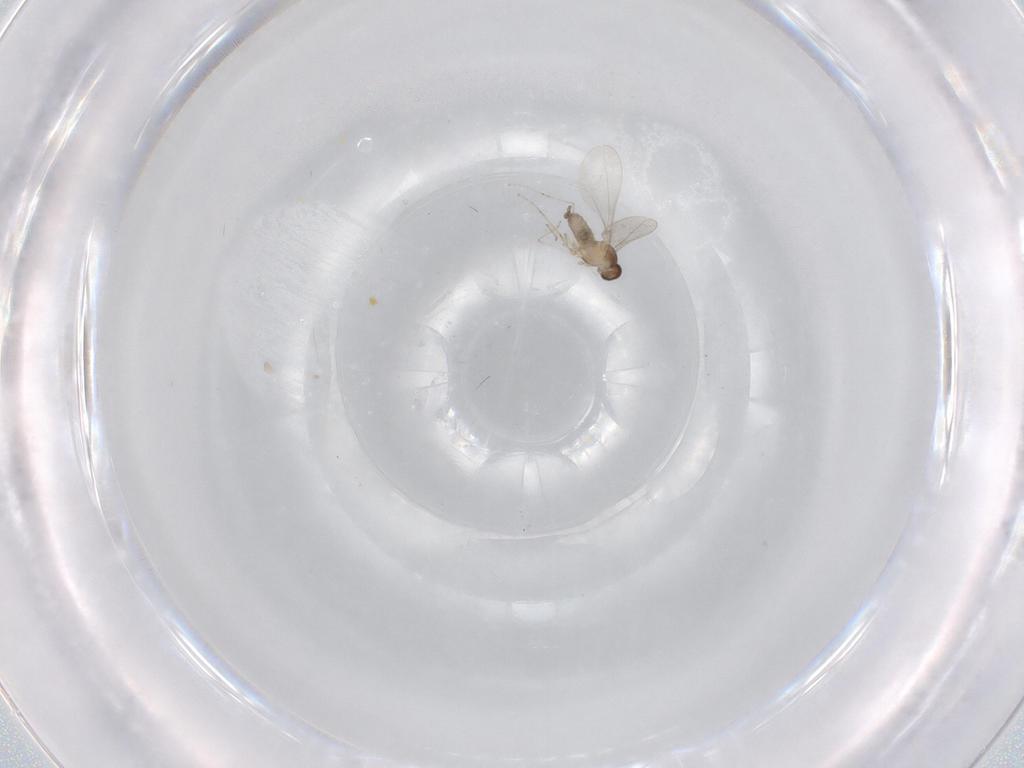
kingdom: Animalia
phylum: Arthropoda
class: Insecta
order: Diptera
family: Cecidomyiidae
